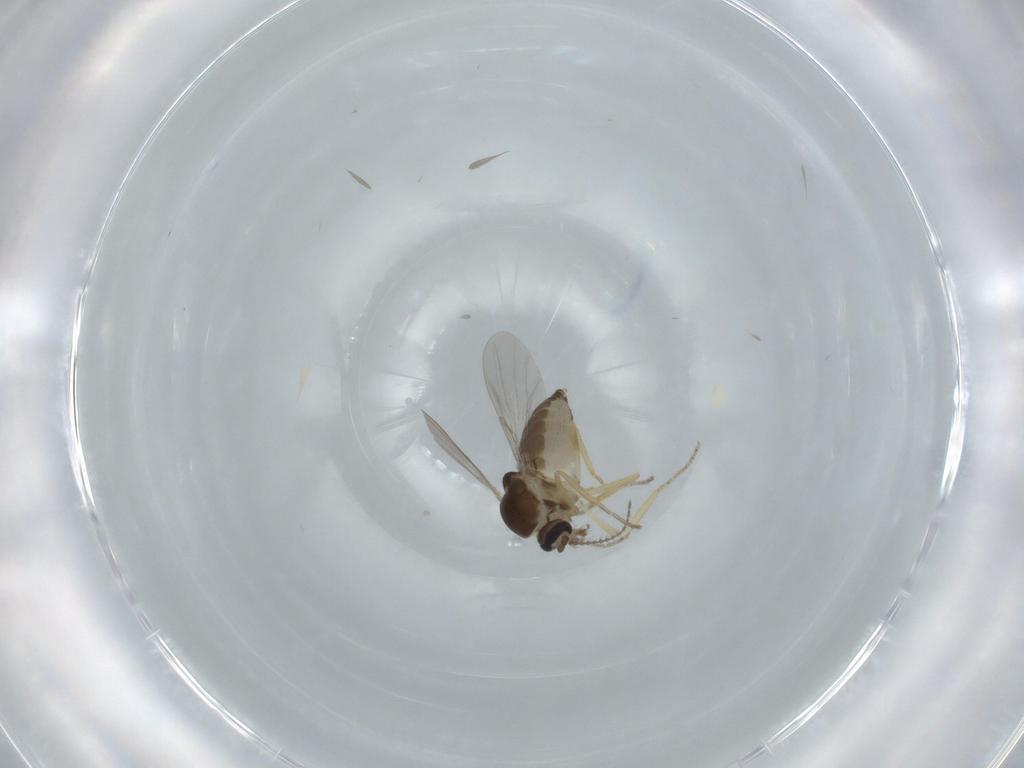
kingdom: Animalia
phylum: Arthropoda
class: Insecta
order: Diptera
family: Ceratopogonidae
